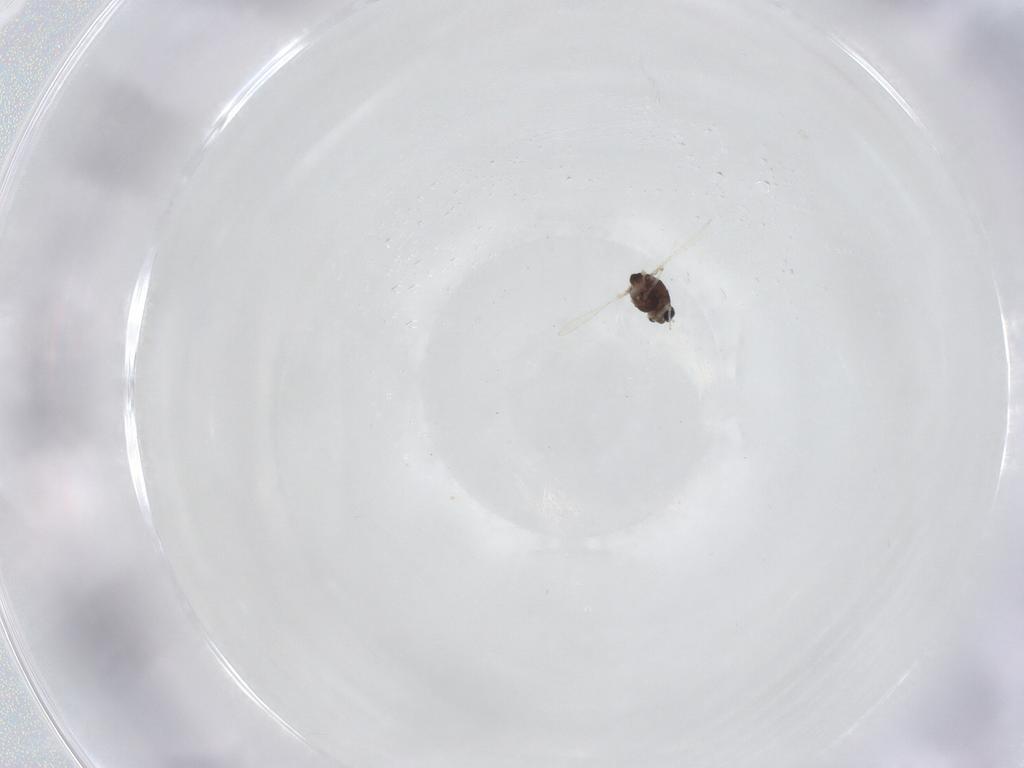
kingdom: Animalia
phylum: Arthropoda
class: Insecta
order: Diptera
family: Chironomidae
